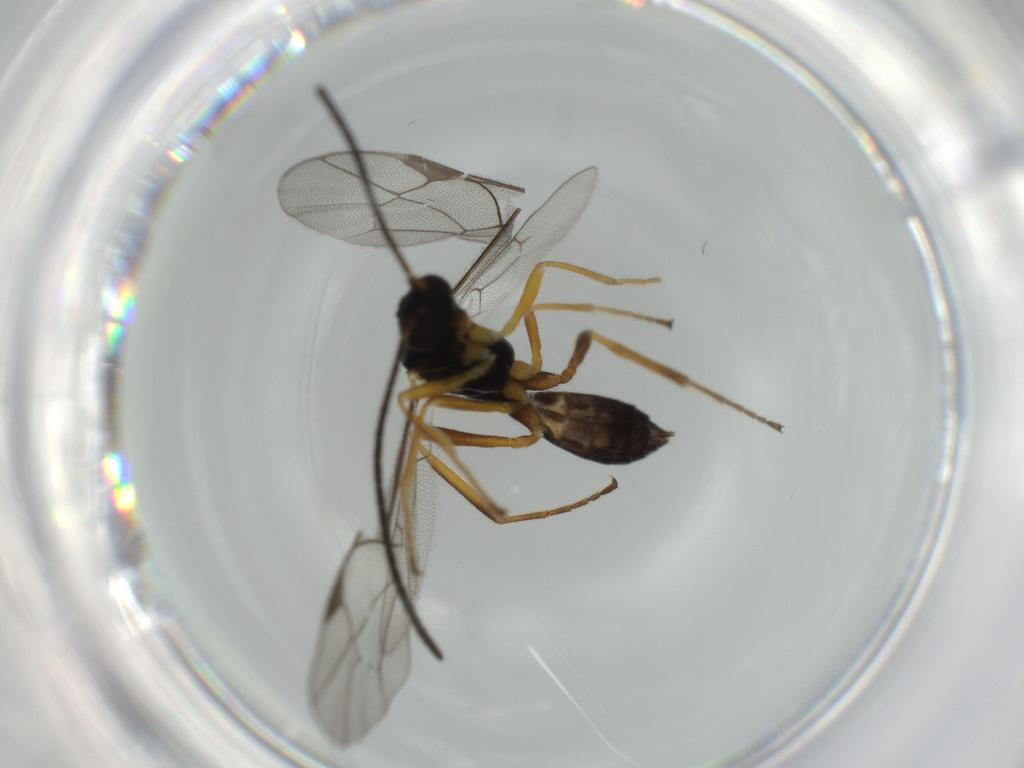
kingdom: Animalia
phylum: Arthropoda
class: Insecta
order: Hymenoptera
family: Ichneumonidae
